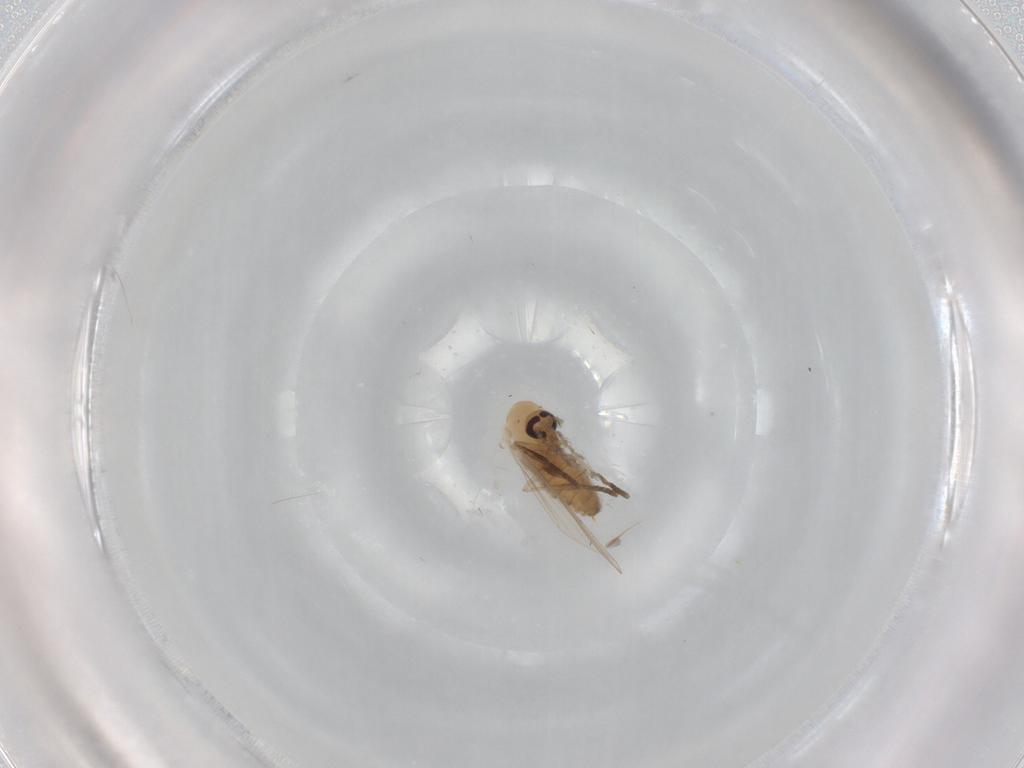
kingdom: Animalia
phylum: Arthropoda
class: Insecta
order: Diptera
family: Psychodidae
